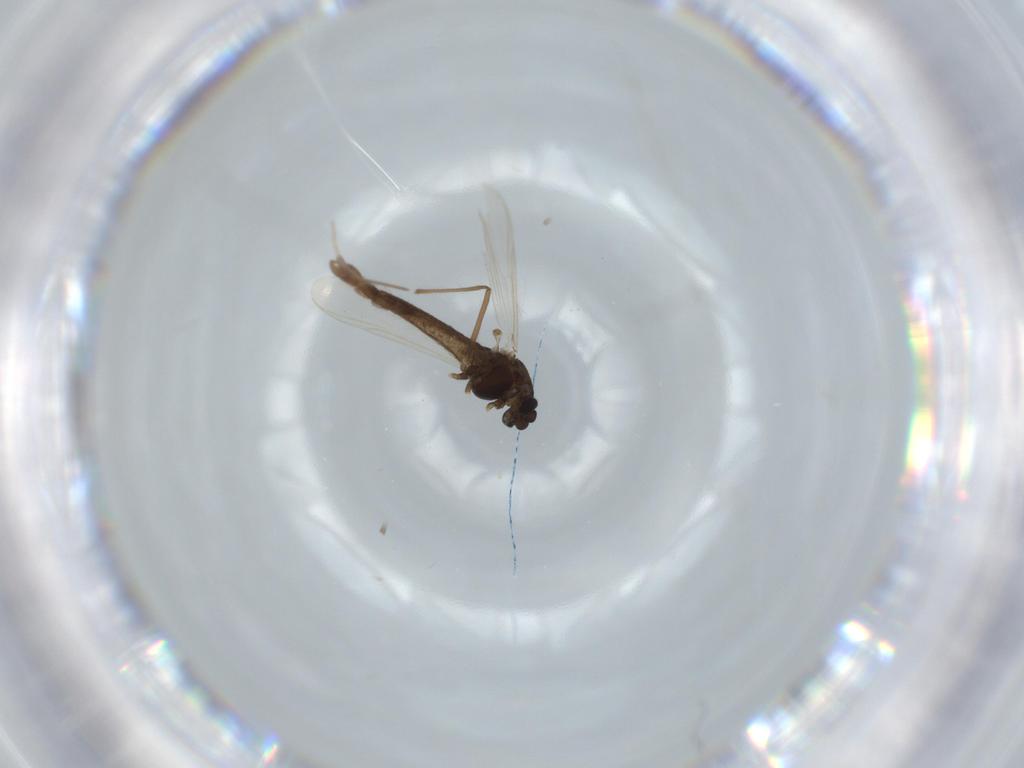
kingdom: Animalia
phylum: Arthropoda
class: Insecta
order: Diptera
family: Chironomidae
